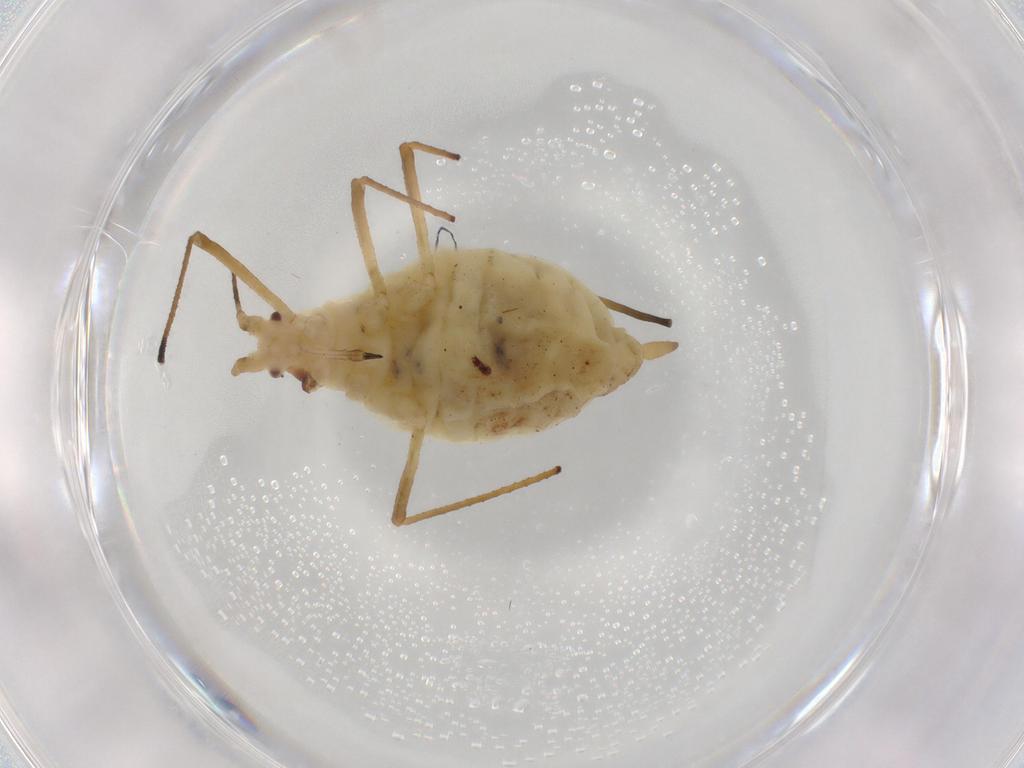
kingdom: Animalia
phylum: Arthropoda
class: Insecta
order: Hemiptera
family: Aphididae
